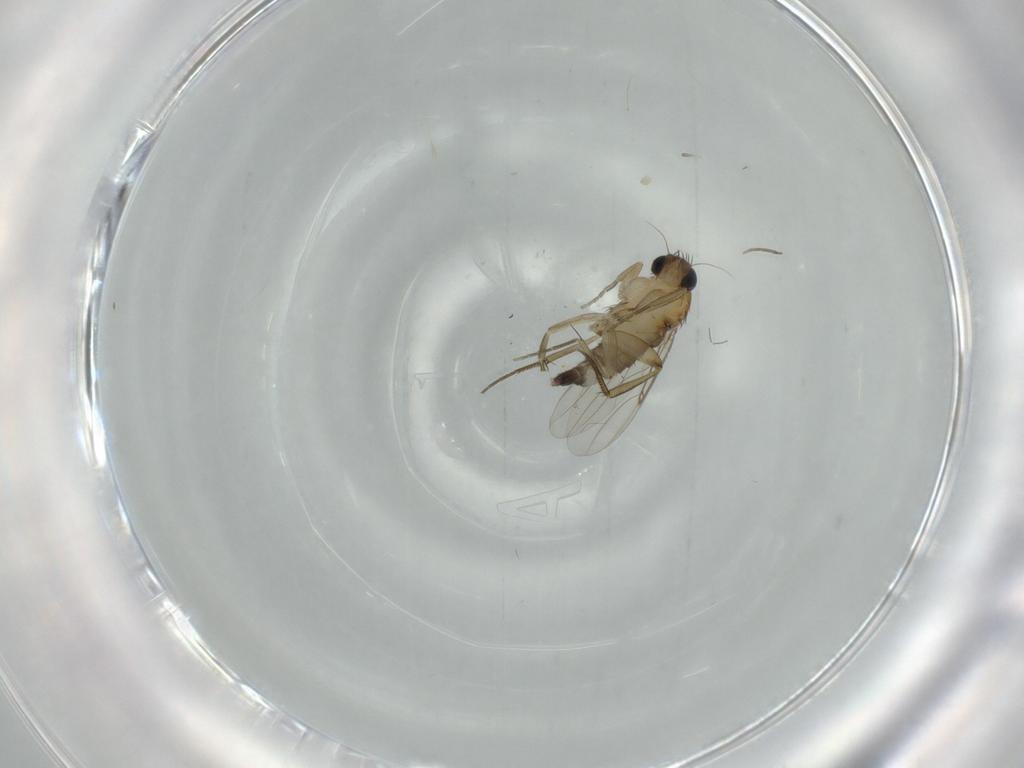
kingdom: Animalia
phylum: Arthropoda
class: Insecta
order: Diptera
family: Phoridae
